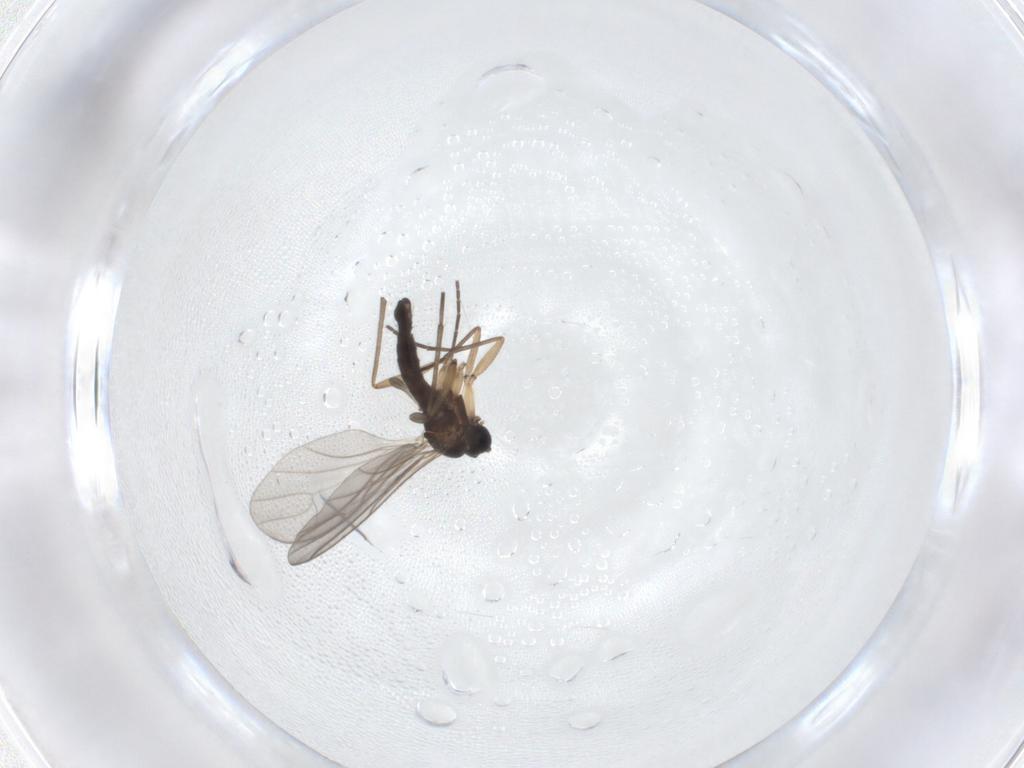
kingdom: Animalia
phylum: Arthropoda
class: Insecta
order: Diptera
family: Sciaridae
